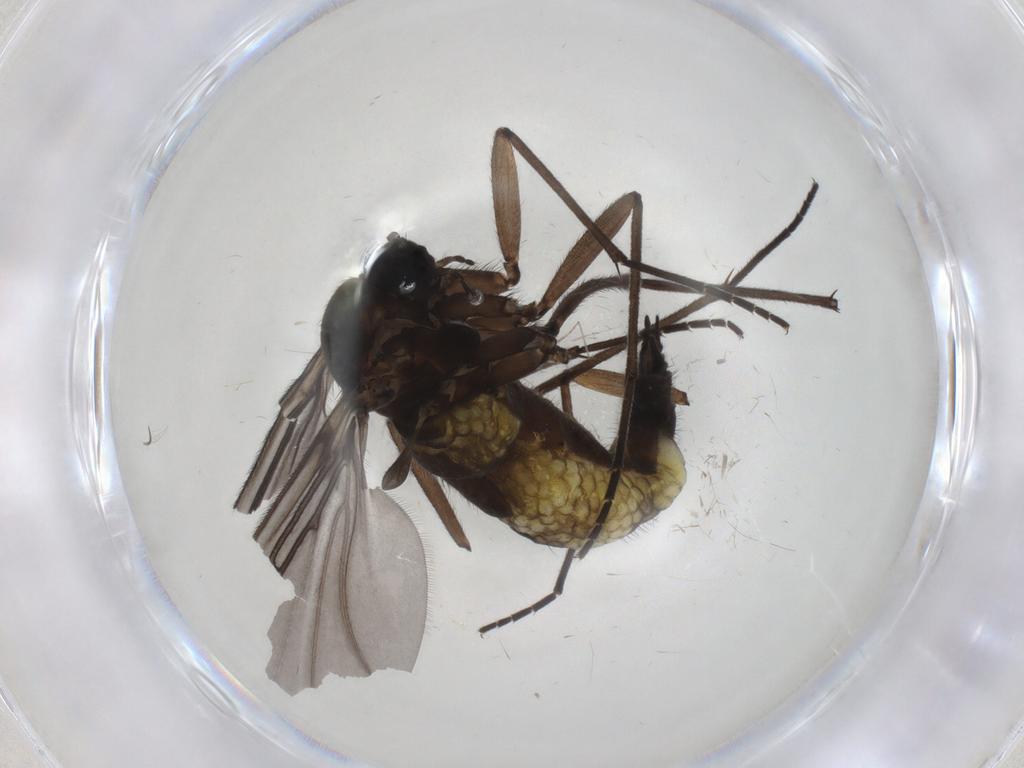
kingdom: Animalia
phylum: Arthropoda
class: Insecta
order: Diptera
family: Sciaridae
